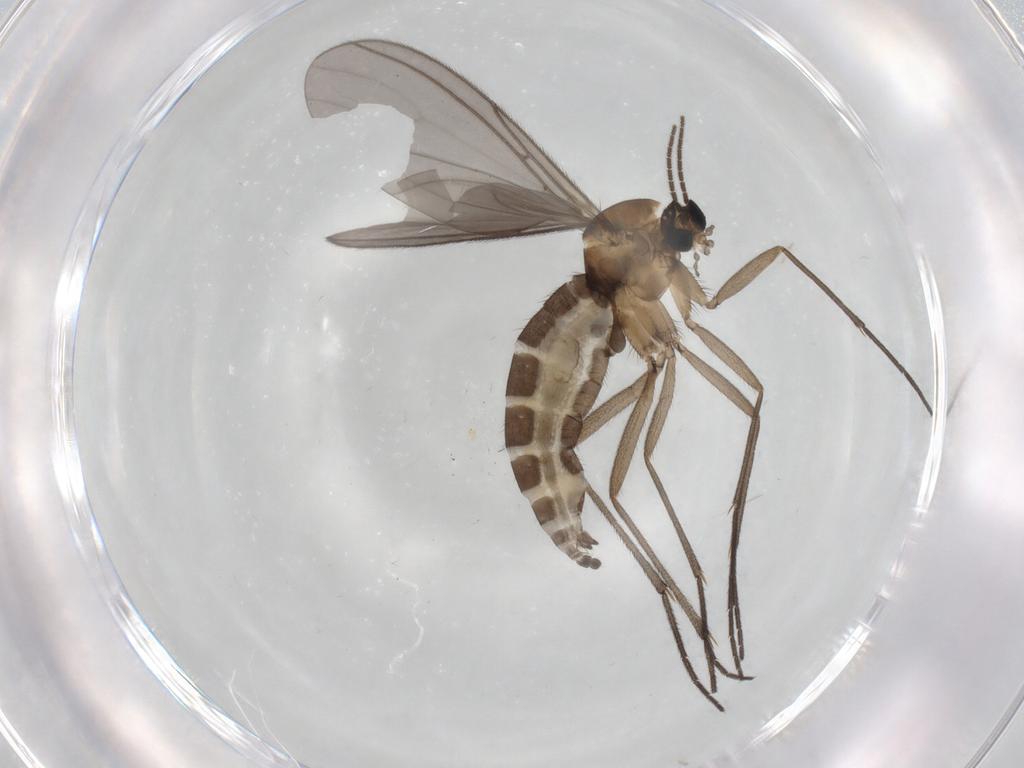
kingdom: Animalia
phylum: Arthropoda
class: Insecta
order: Diptera
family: Sciaridae
